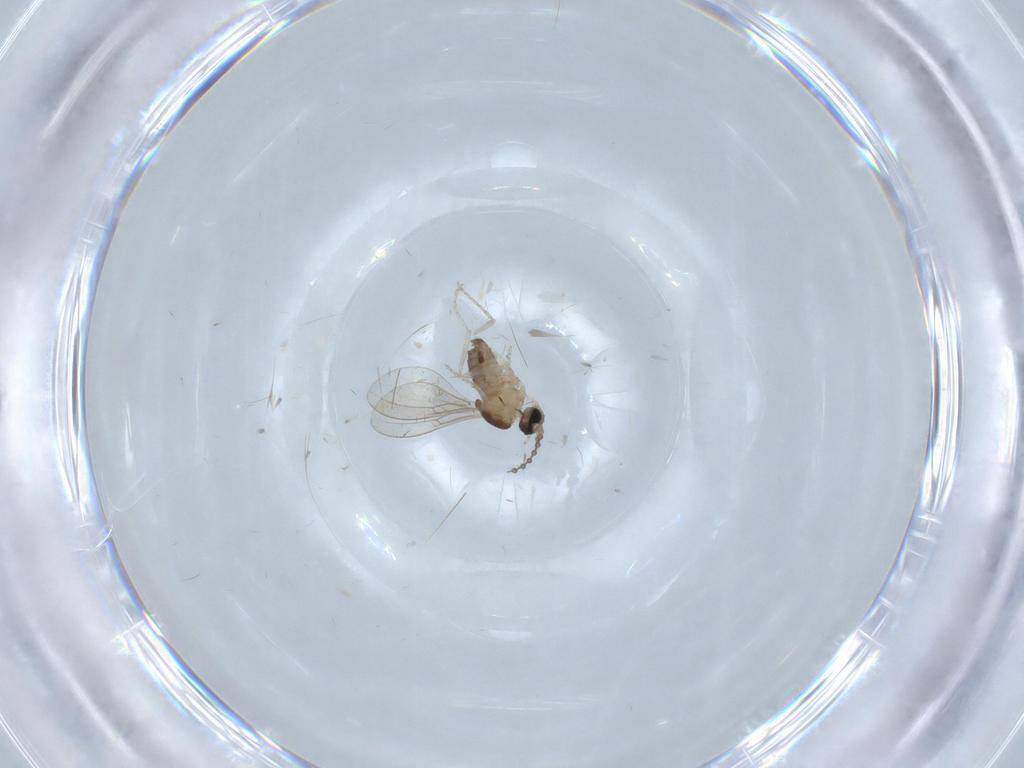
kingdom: Animalia
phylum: Arthropoda
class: Insecta
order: Diptera
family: Cecidomyiidae
